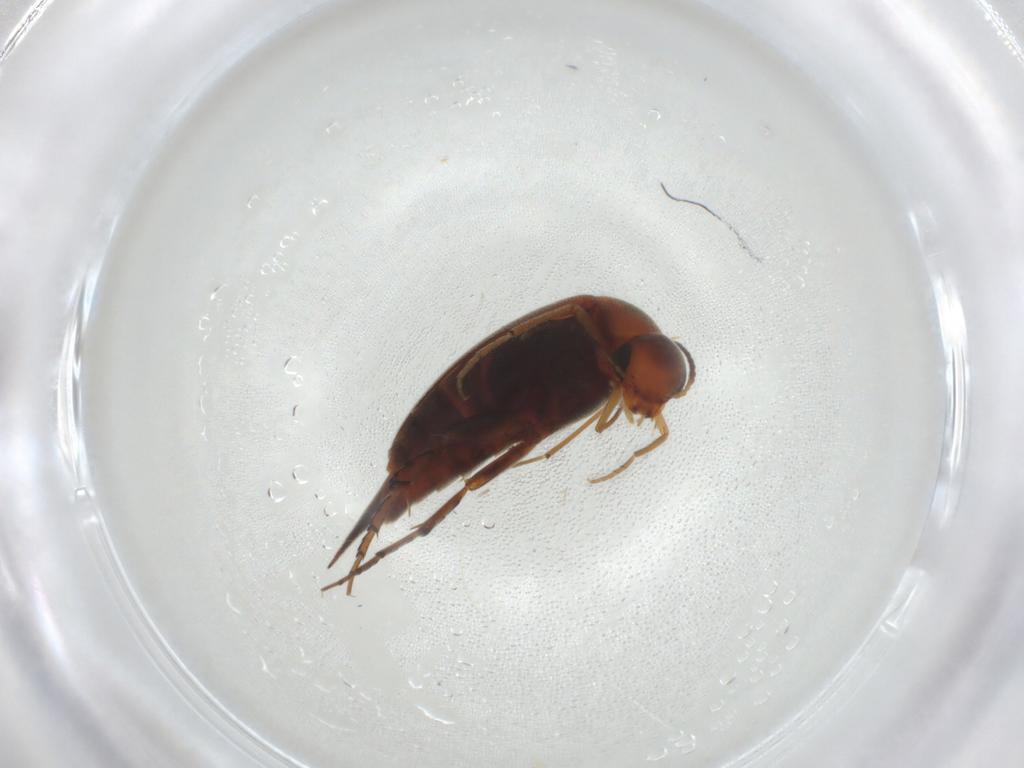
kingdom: Animalia
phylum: Arthropoda
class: Insecta
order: Coleoptera
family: Mordellidae
